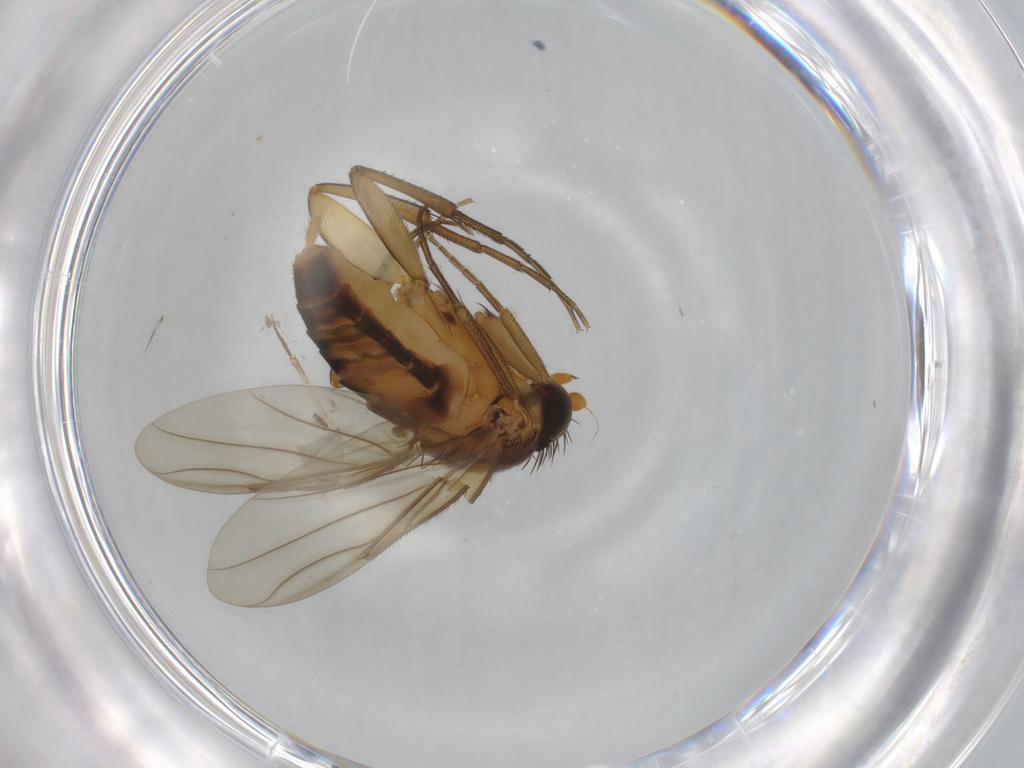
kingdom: Animalia
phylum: Arthropoda
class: Insecta
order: Diptera
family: Phoridae
